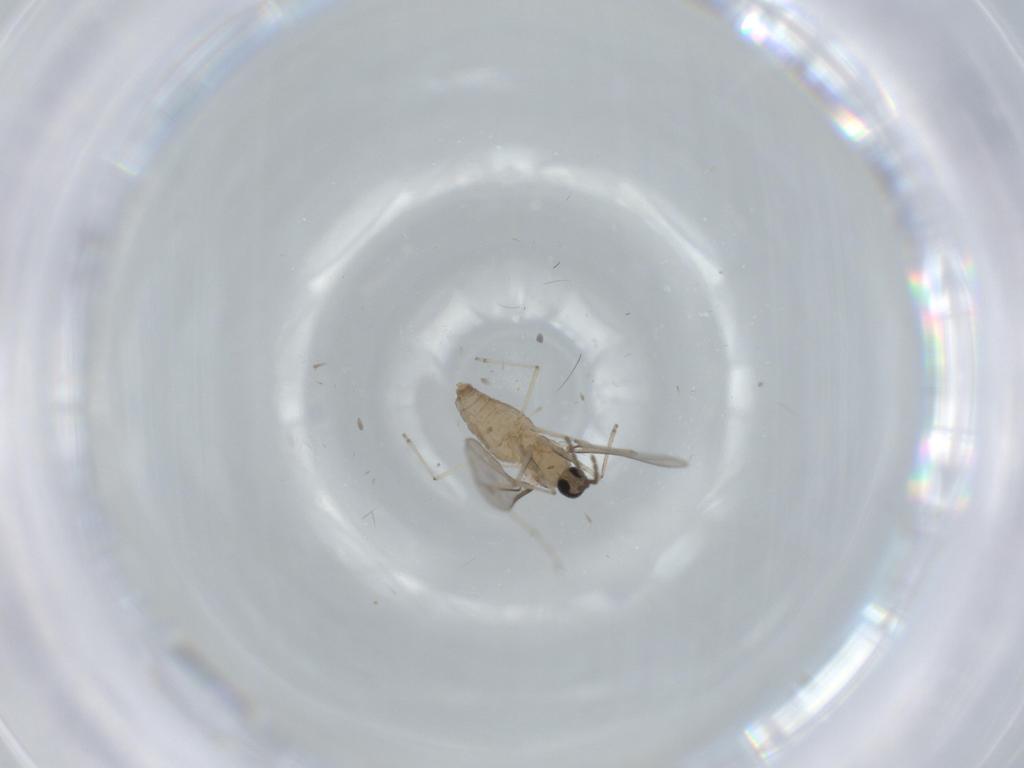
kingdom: Animalia
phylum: Arthropoda
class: Insecta
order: Diptera
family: Cecidomyiidae
